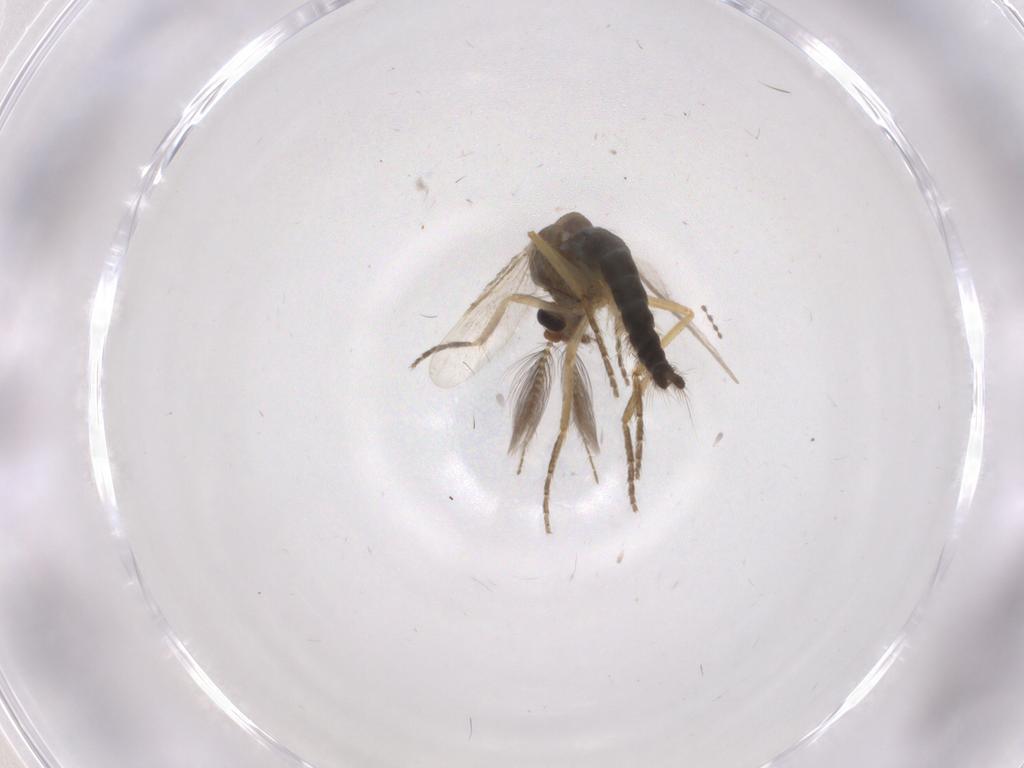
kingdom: Animalia
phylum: Arthropoda
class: Insecta
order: Diptera
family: Ceratopogonidae
